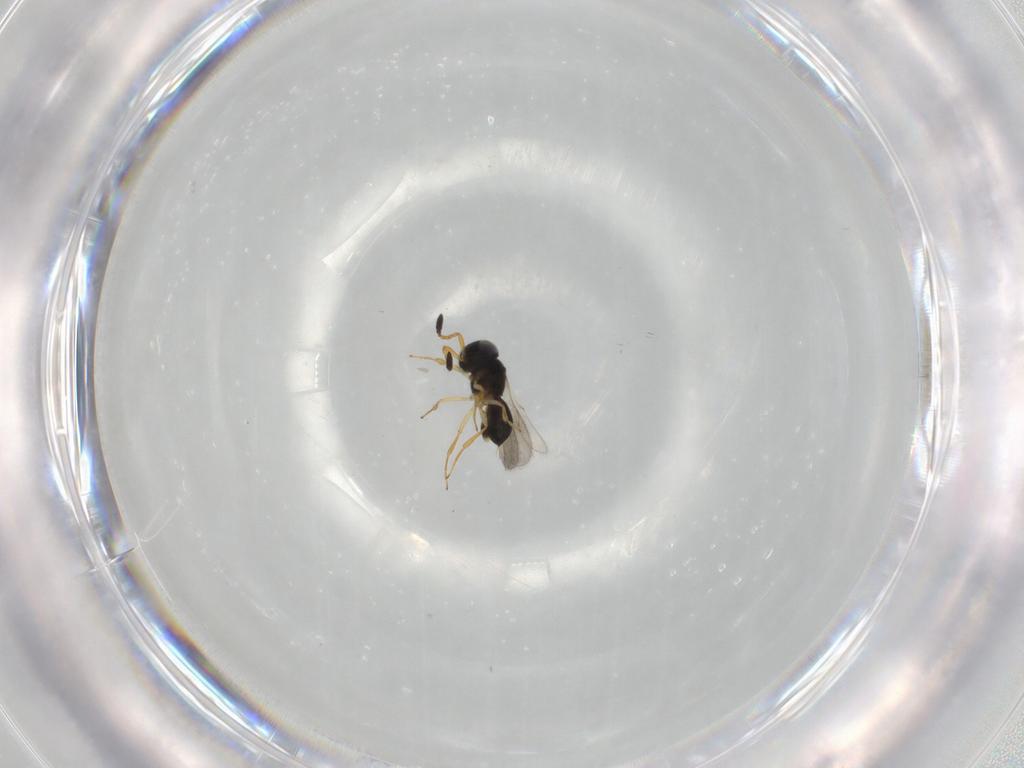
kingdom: Animalia
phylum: Arthropoda
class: Insecta
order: Hymenoptera
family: Scelionidae
